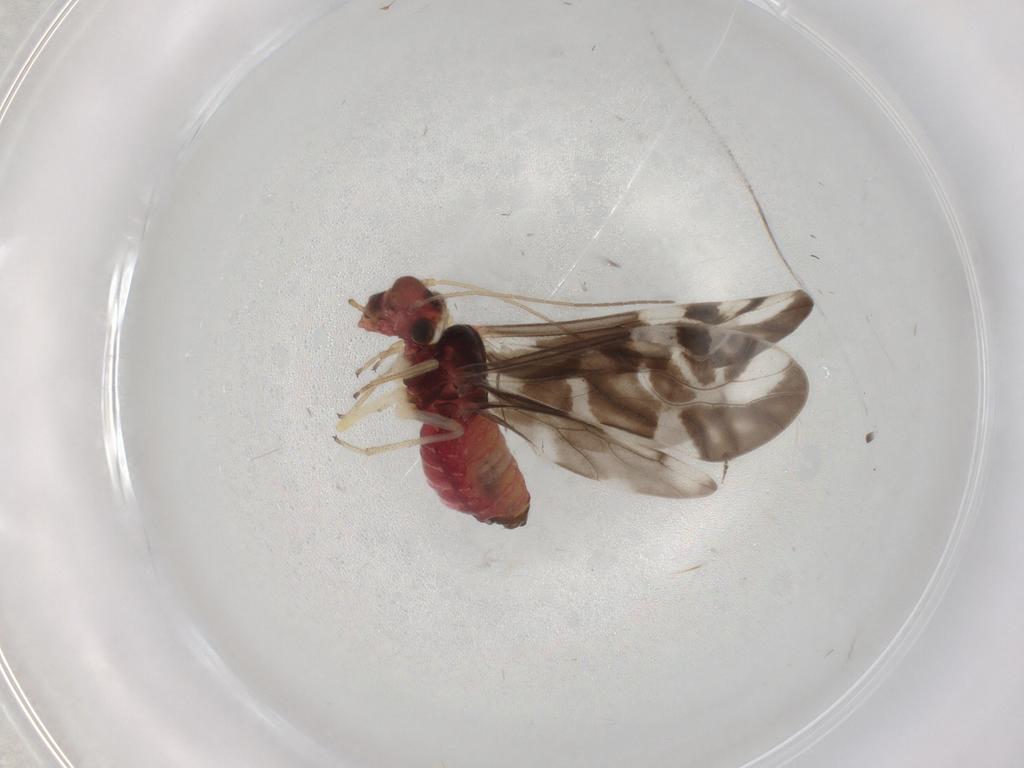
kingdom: Animalia
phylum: Arthropoda
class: Insecta
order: Psocodea
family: Caeciliusidae
